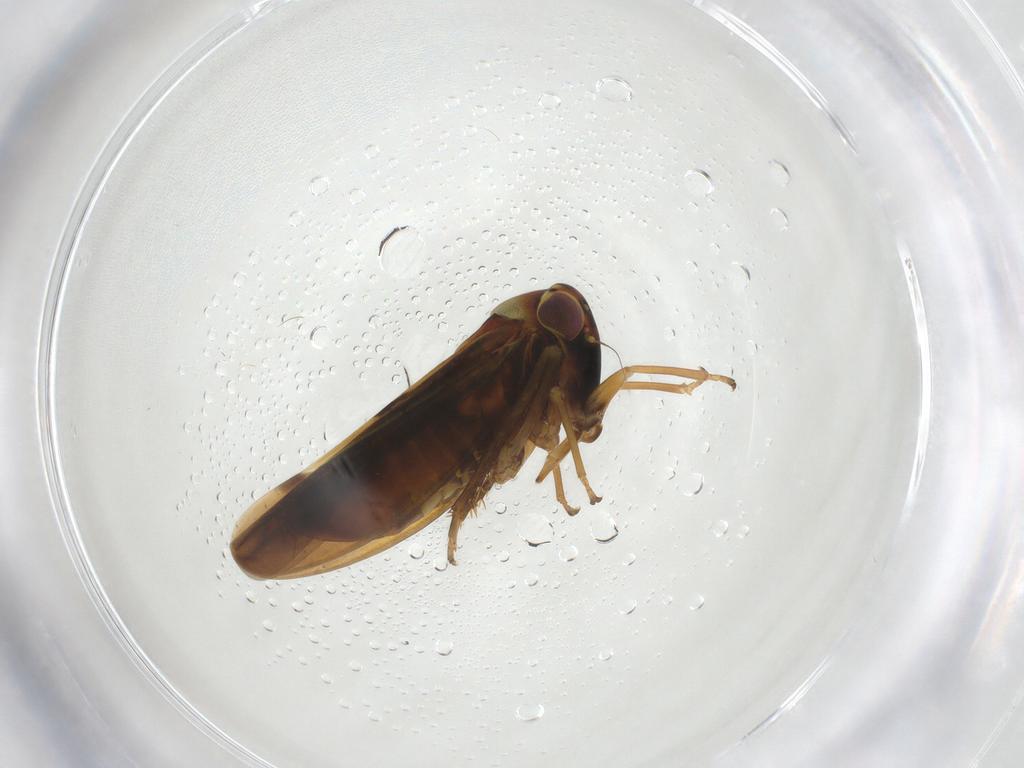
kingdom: Animalia
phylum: Arthropoda
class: Insecta
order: Hemiptera
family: Cicadellidae
